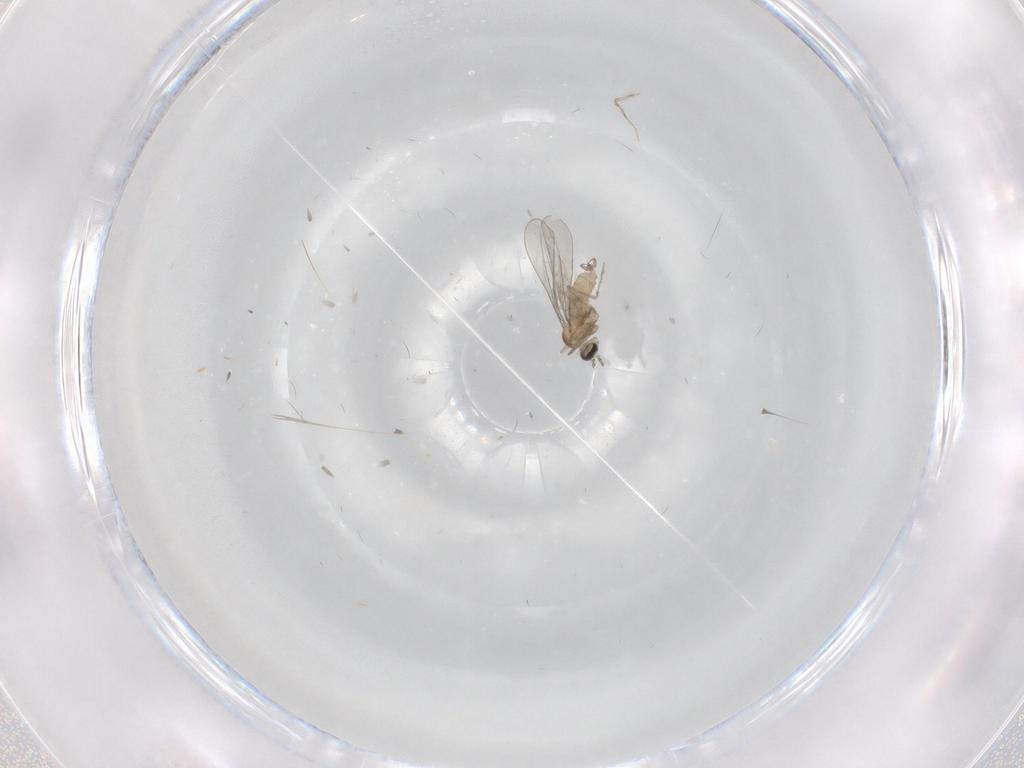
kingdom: Animalia
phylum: Arthropoda
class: Insecta
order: Diptera
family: Cecidomyiidae
